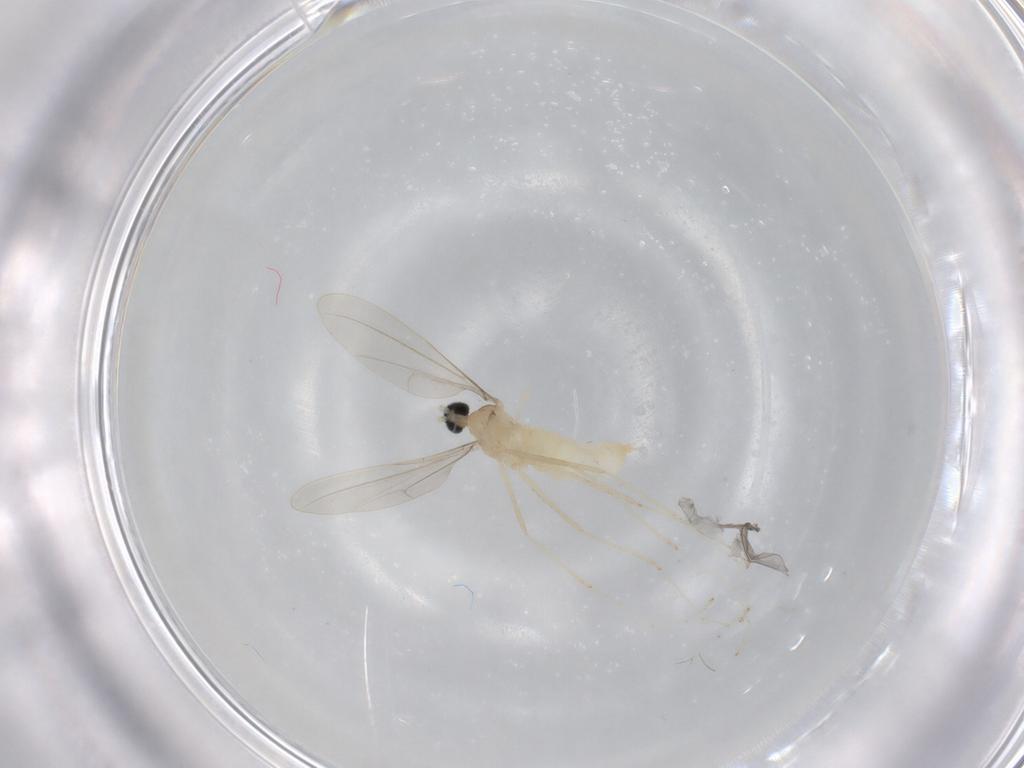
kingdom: Animalia
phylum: Arthropoda
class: Insecta
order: Diptera
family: Cecidomyiidae
